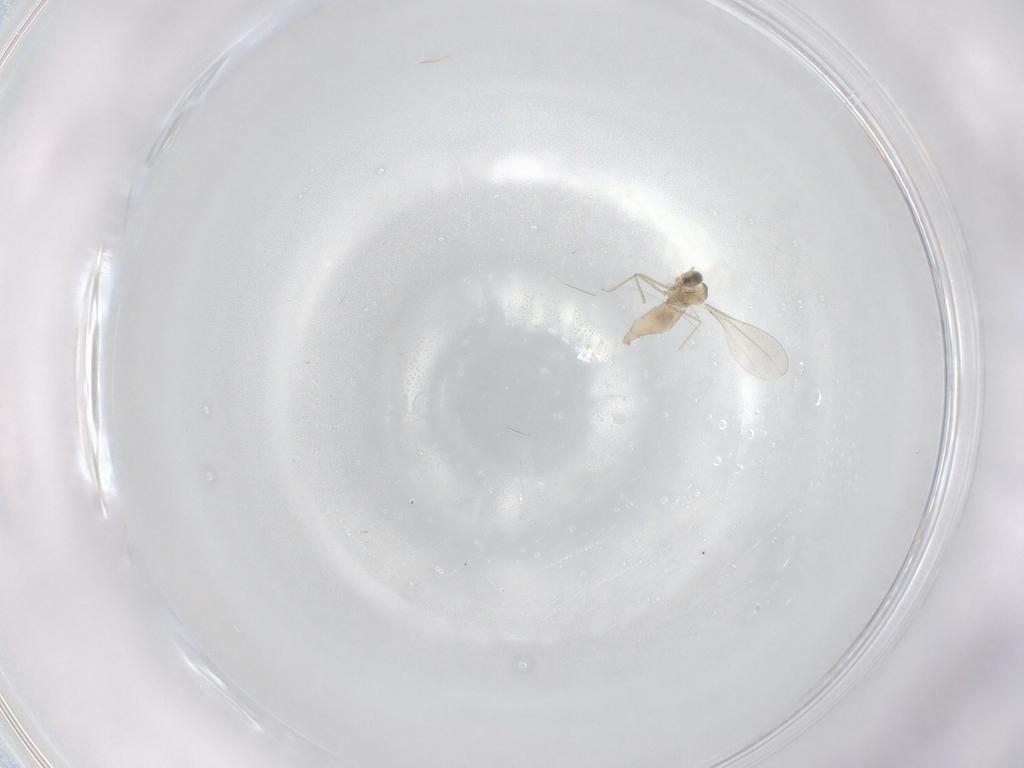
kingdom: Animalia
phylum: Arthropoda
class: Insecta
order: Diptera
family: Cecidomyiidae
